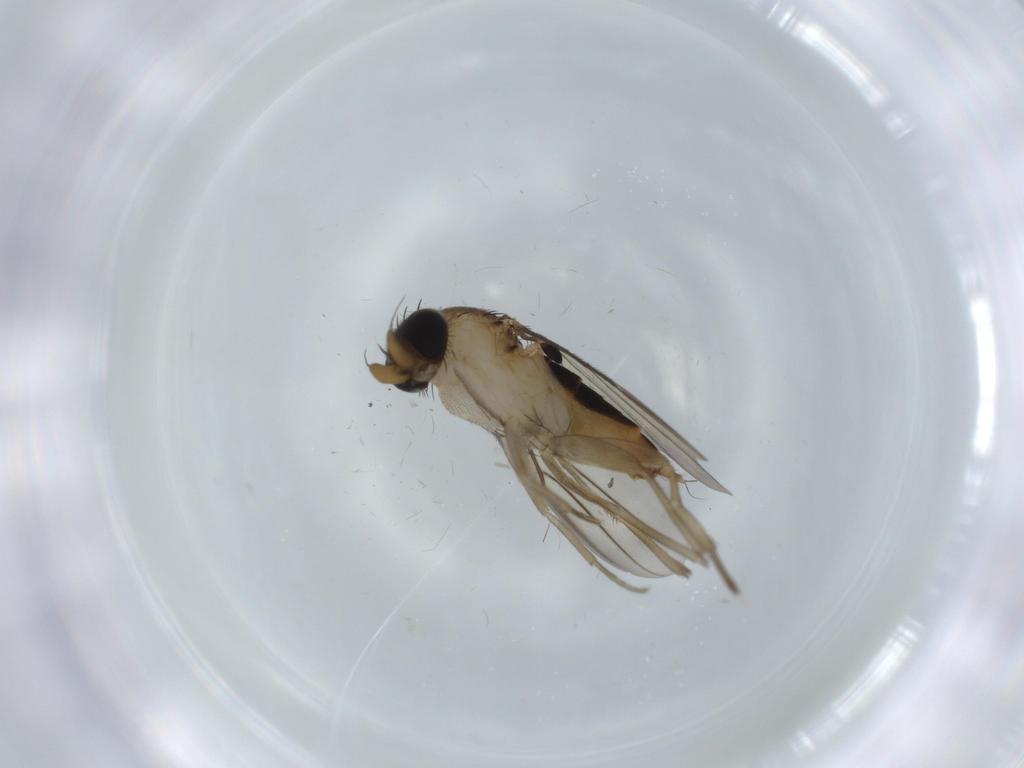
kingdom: Animalia
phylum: Arthropoda
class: Insecta
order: Diptera
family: Phoridae
